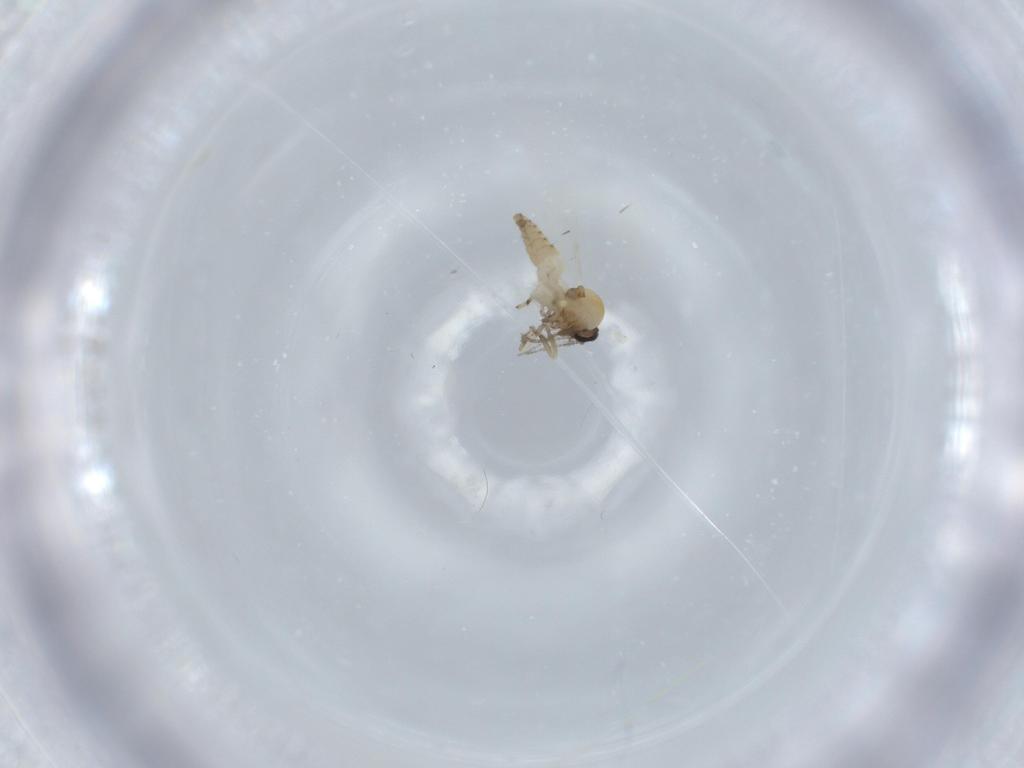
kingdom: Animalia
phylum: Arthropoda
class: Insecta
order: Diptera
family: Ceratopogonidae
